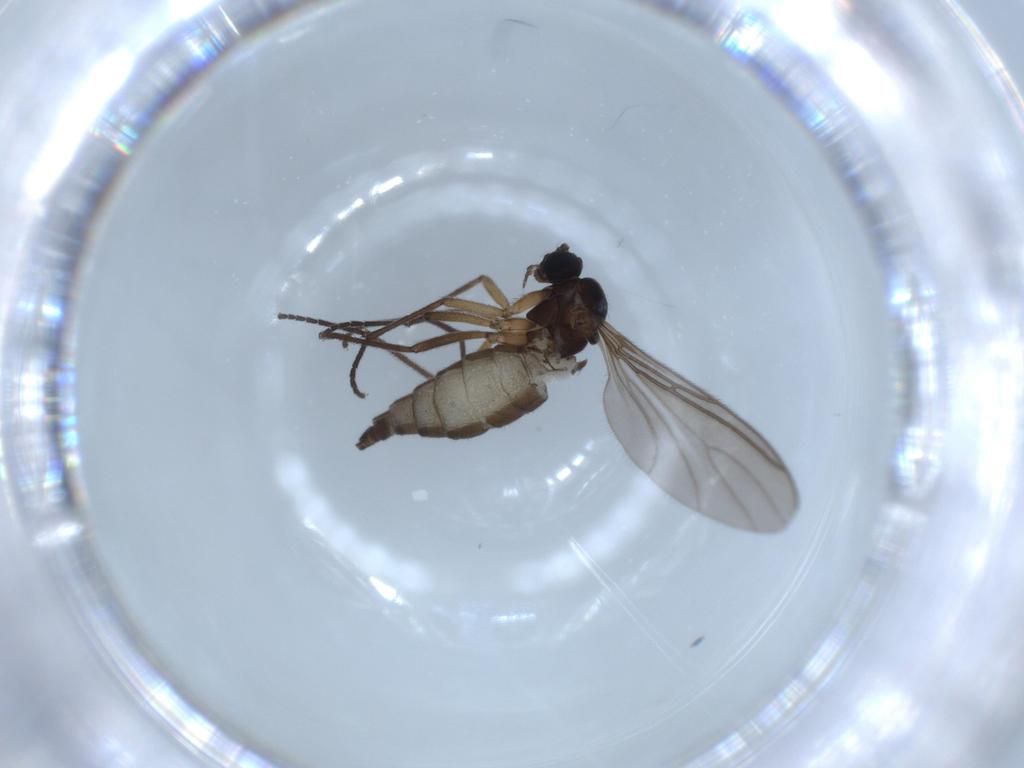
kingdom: Animalia
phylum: Arthropoda
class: Insecta
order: Diptera
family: Sciaridae
